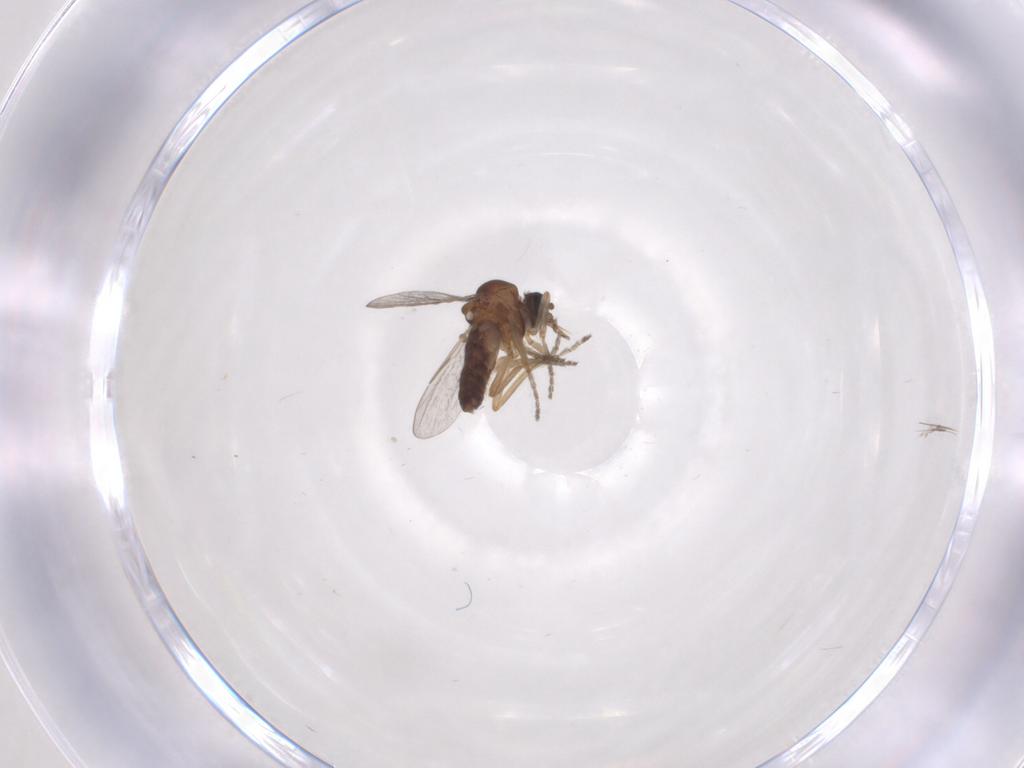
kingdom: Animalia
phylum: Arthropoda
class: Insecta
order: Diptera
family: Ceratopogonidae
